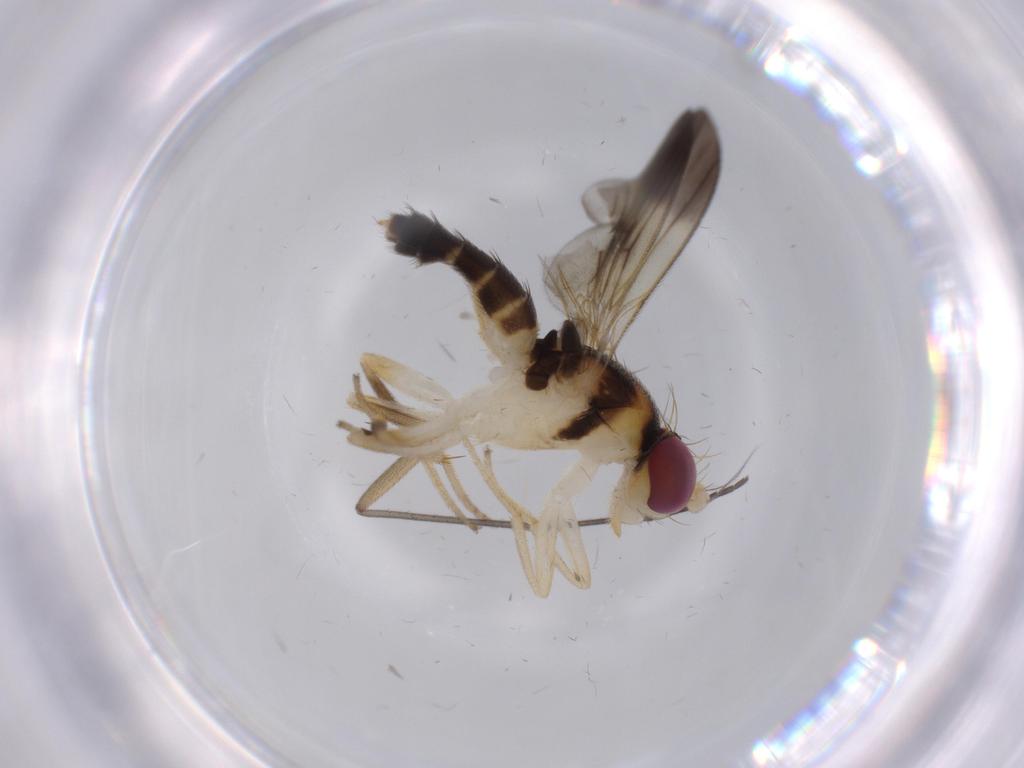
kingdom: Animalia
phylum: Arthropoda
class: Insecta
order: Diptera
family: Clusiidae
